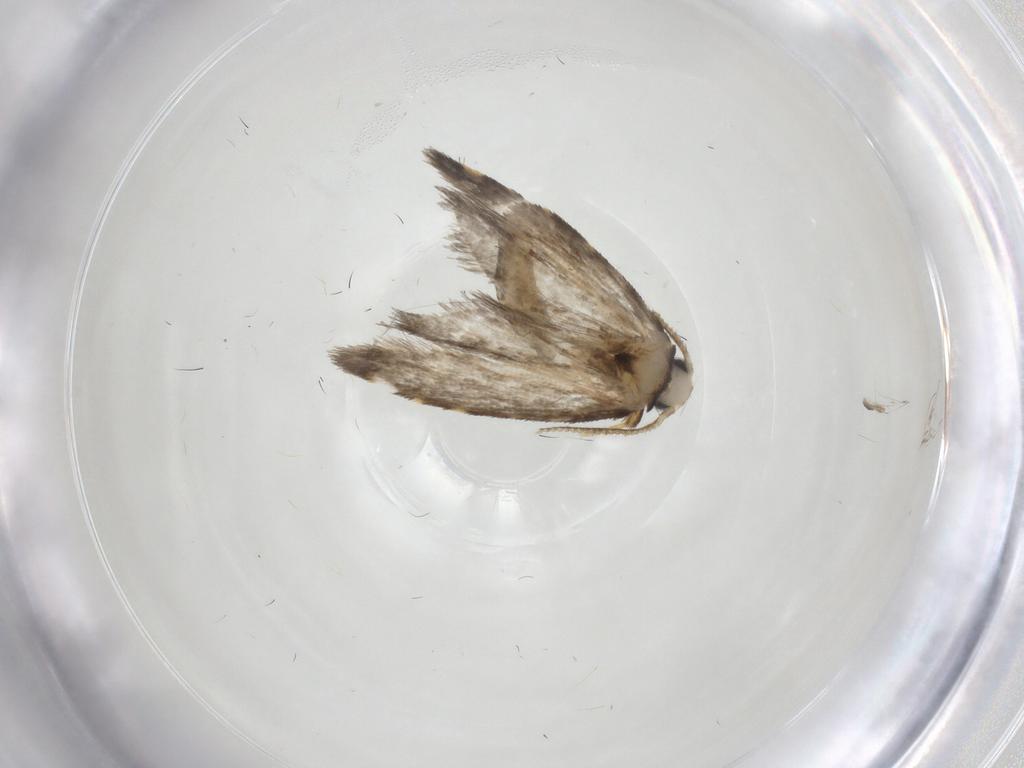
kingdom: Animalia
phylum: Arthropoda
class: Insecta
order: Lepidoptera
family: Psychidae
